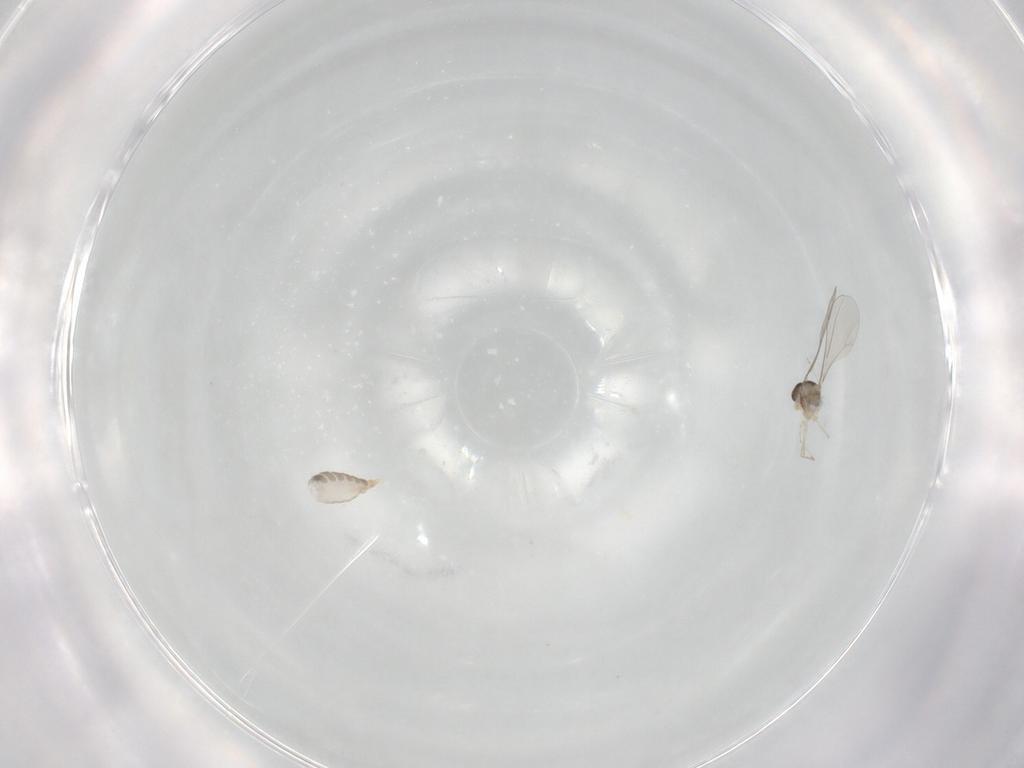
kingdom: Animalia
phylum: Arthropoda
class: Insecta
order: Diptera
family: Cecidomyiidae
